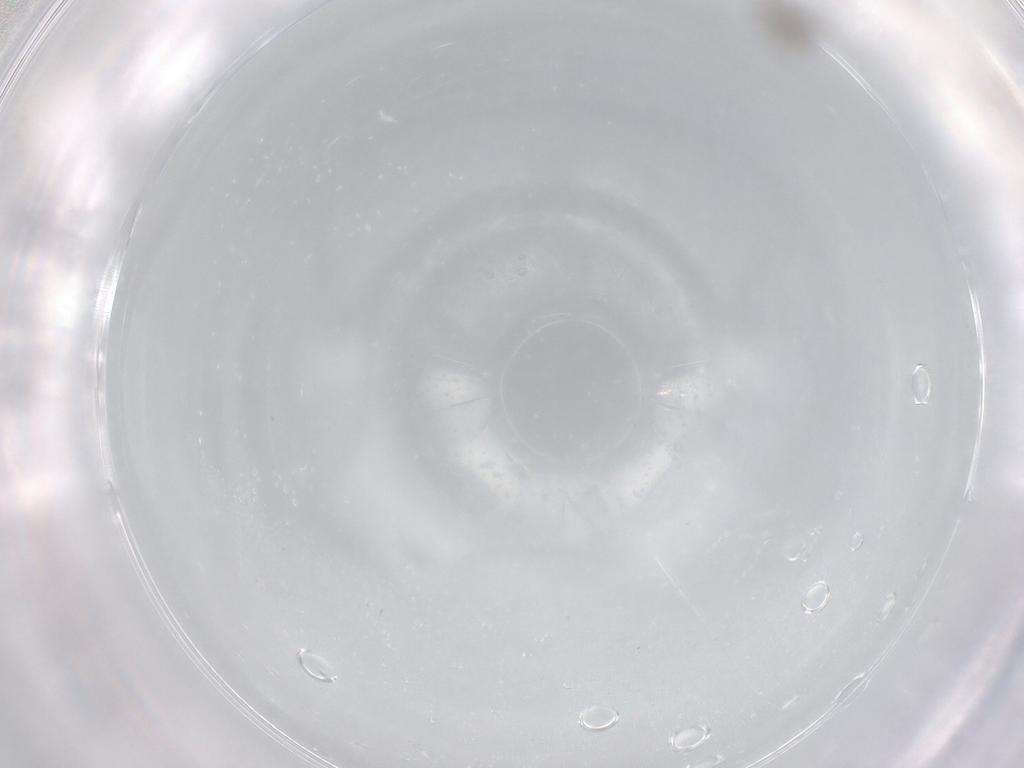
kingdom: Animalia
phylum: Arthropoda
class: Insecta
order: Diptera
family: Cecidomyiidae
